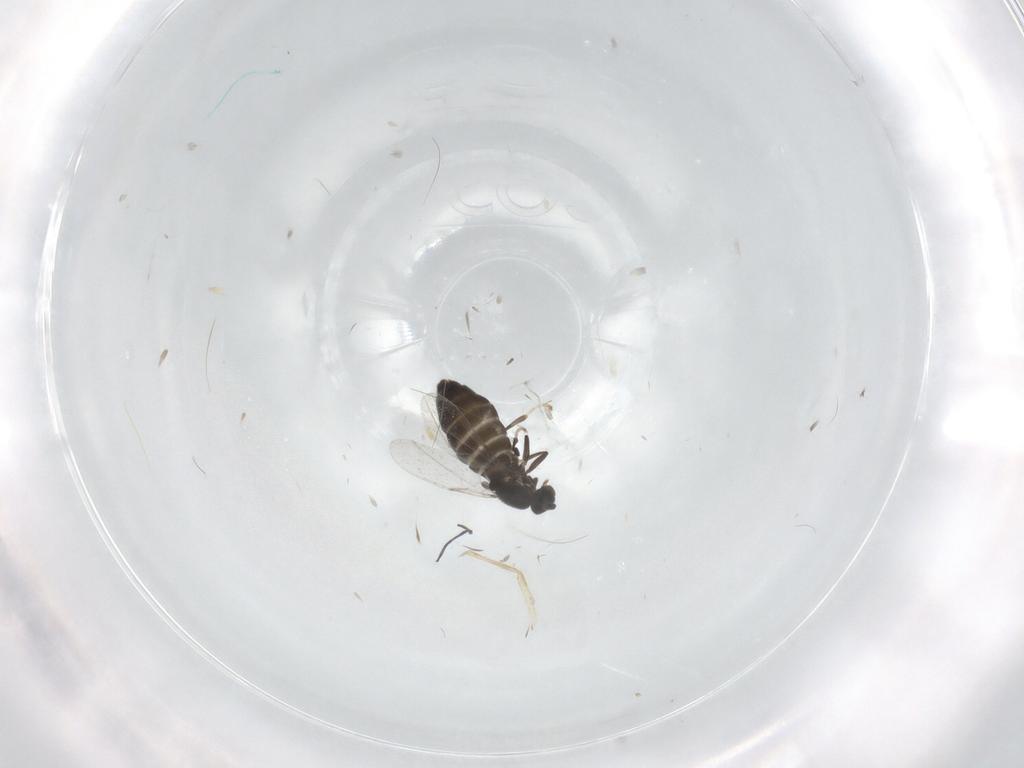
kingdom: Animalia
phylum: Arthropoda
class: Insecta
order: Diptera
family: Scatopsidae
